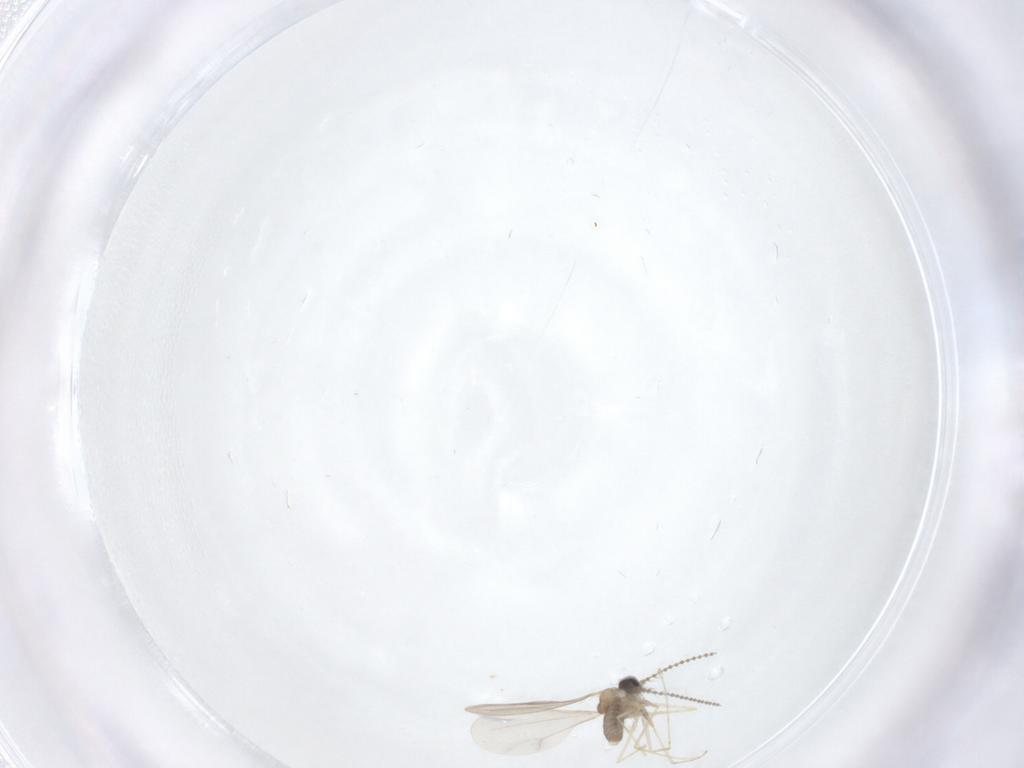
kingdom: Animalia
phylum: Arthropoda
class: Insecta
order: Diptera
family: Cecidomyiidae
